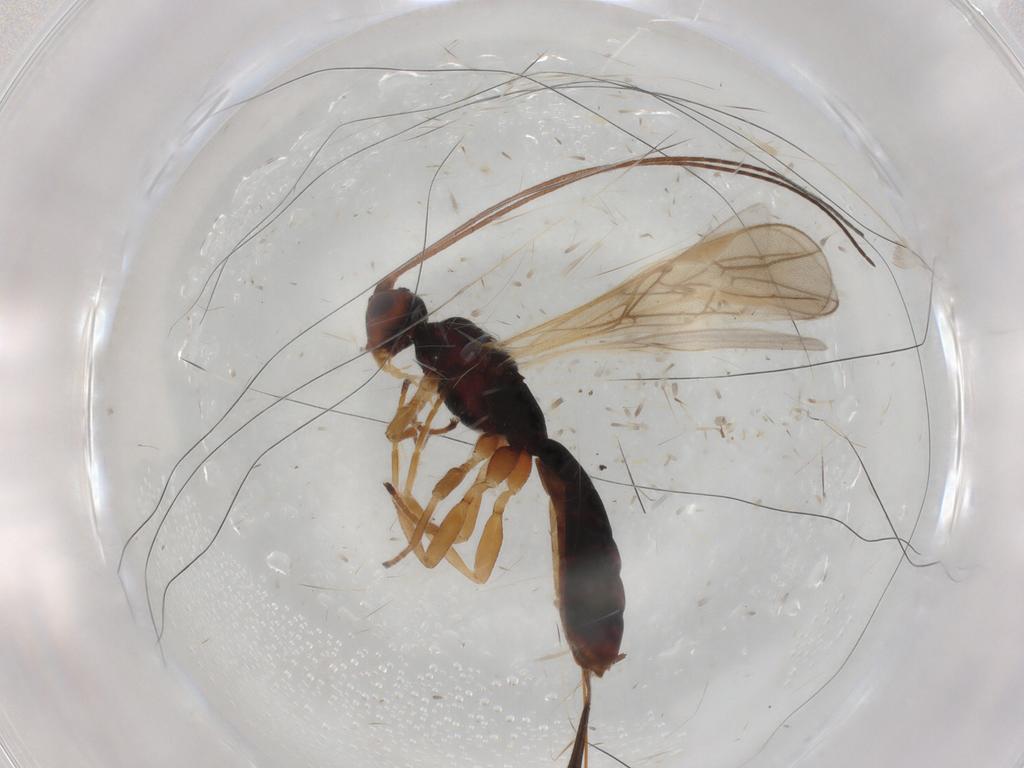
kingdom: Animalia
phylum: Arthropoda
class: Insecta
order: Hymenoptera
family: Braconidae
